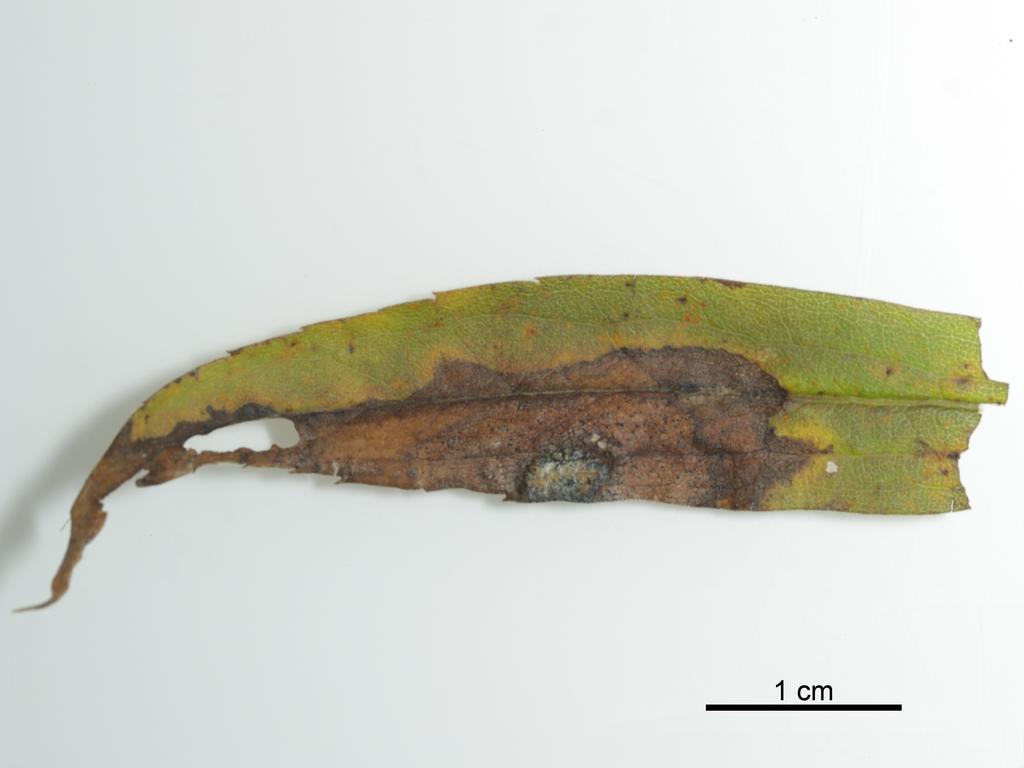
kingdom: Animalia
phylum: Arthropoda
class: Insecta
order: Hymenoptera
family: Eulophidae
